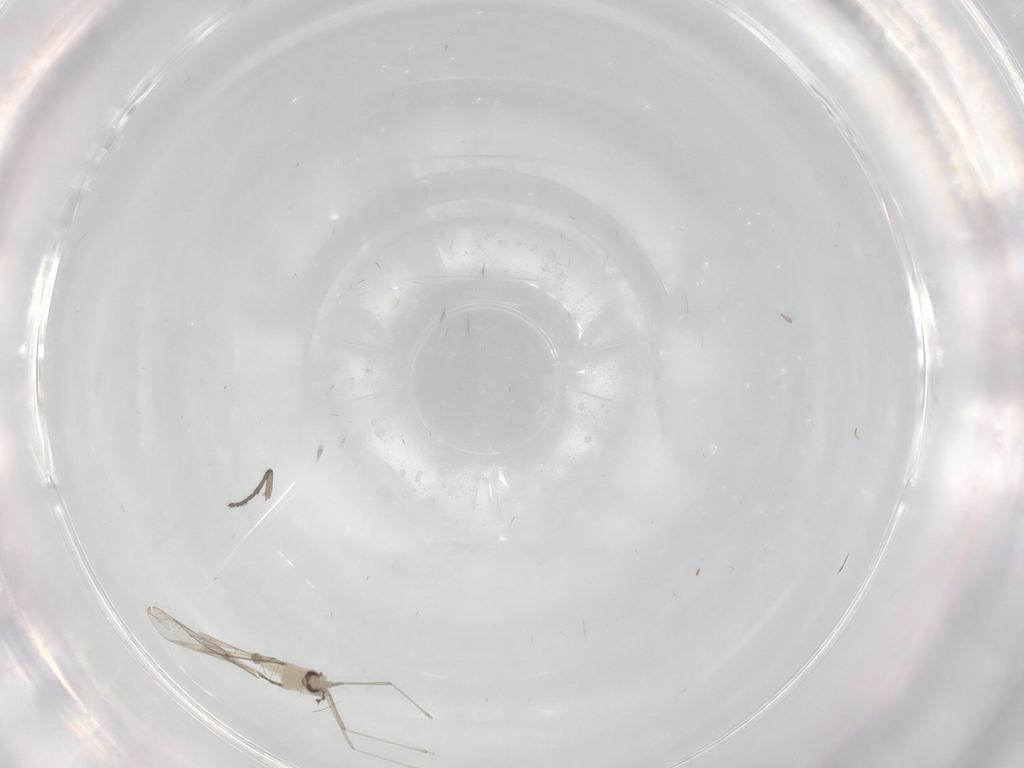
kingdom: Animalia
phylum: Arthropoda
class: Insecta
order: Diptera
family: Cecidomyiidae
